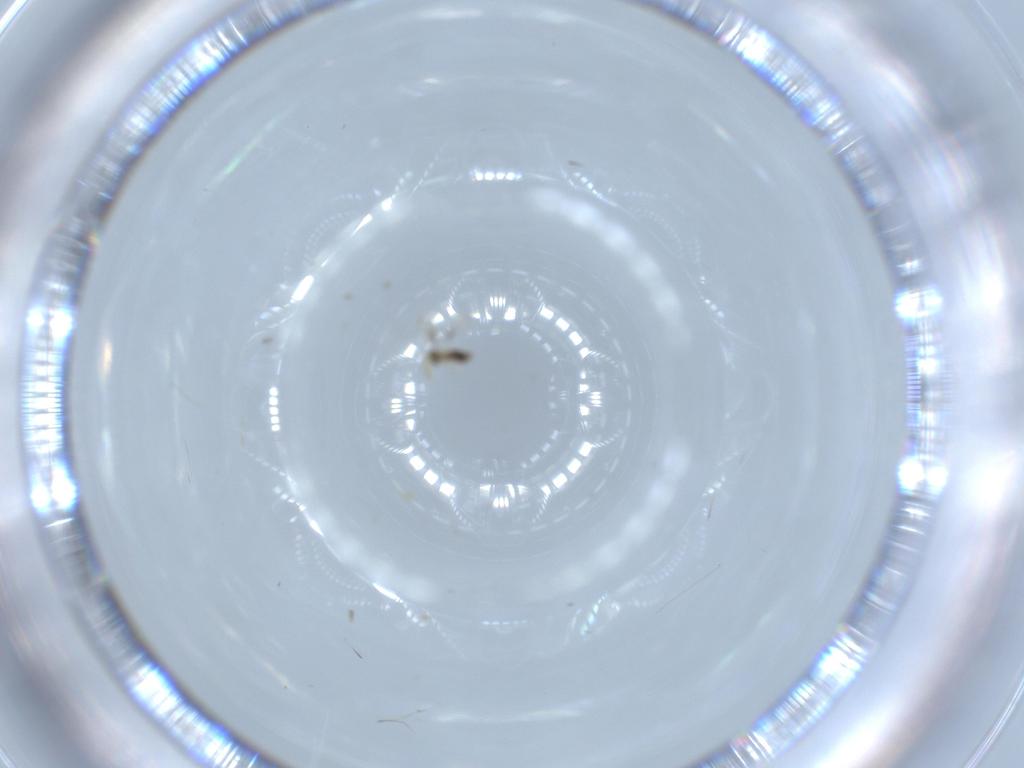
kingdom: Animalia
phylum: Arthropoda
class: Insecta
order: Hymenoptera
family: Aphelinidae
